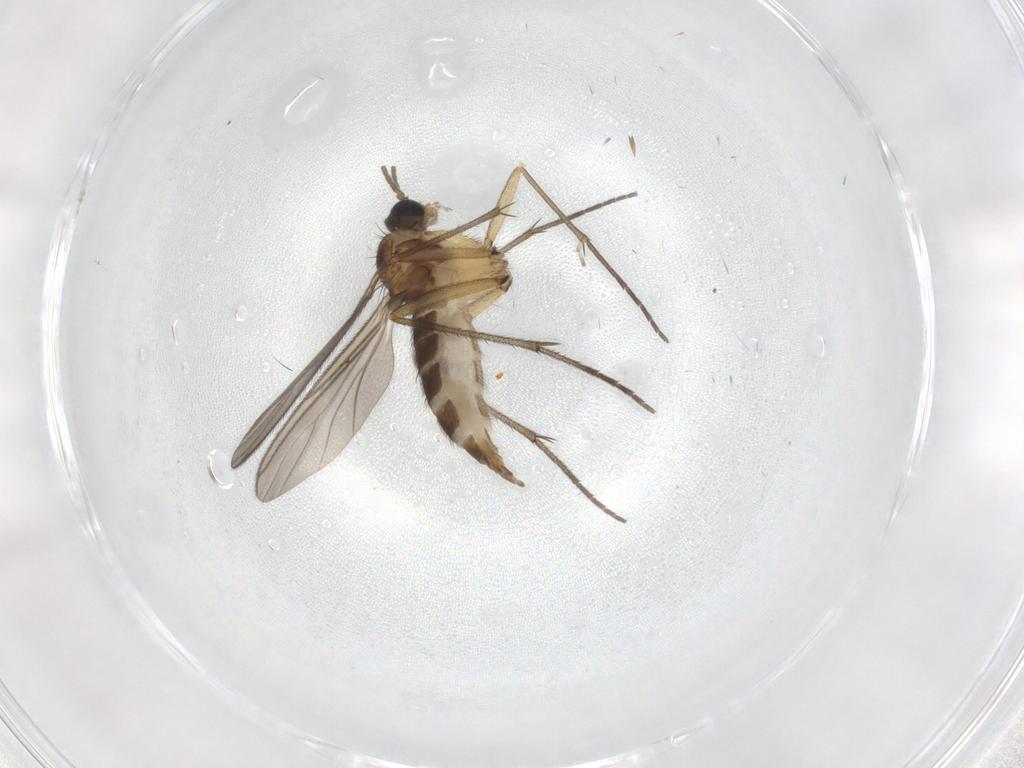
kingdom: Animalia
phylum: Arthropoda
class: Insecta
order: Diptera
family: Sciaridae
